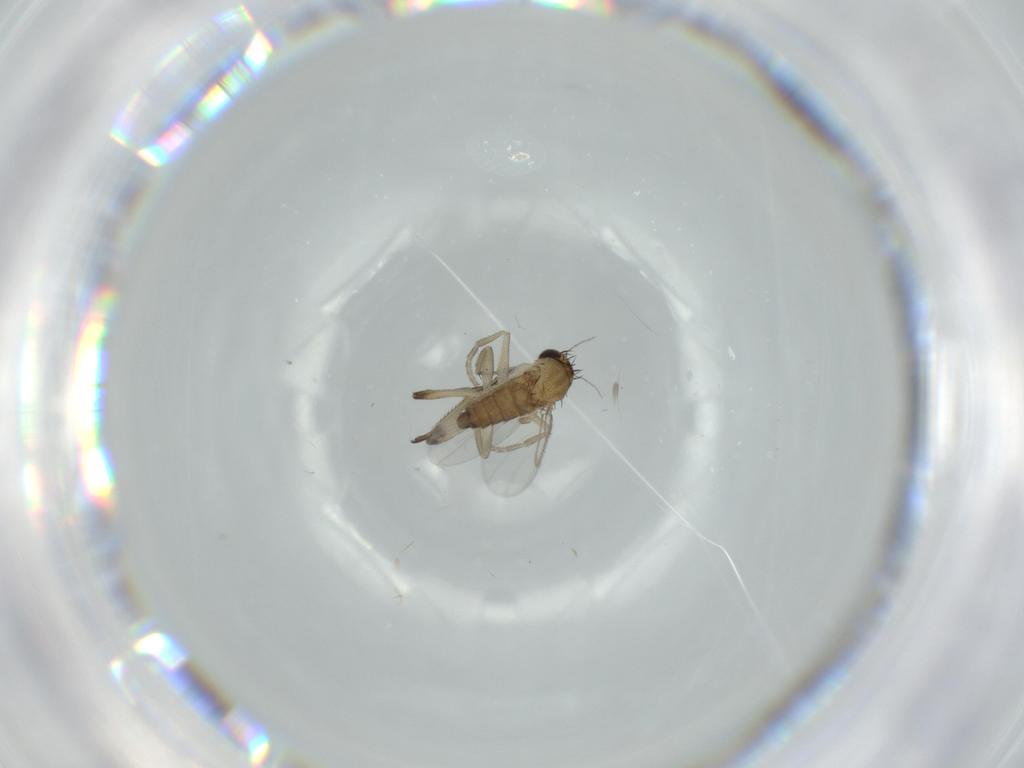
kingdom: Animalia
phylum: Arthropoda
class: Insecta
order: Diptera
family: Phoridae
